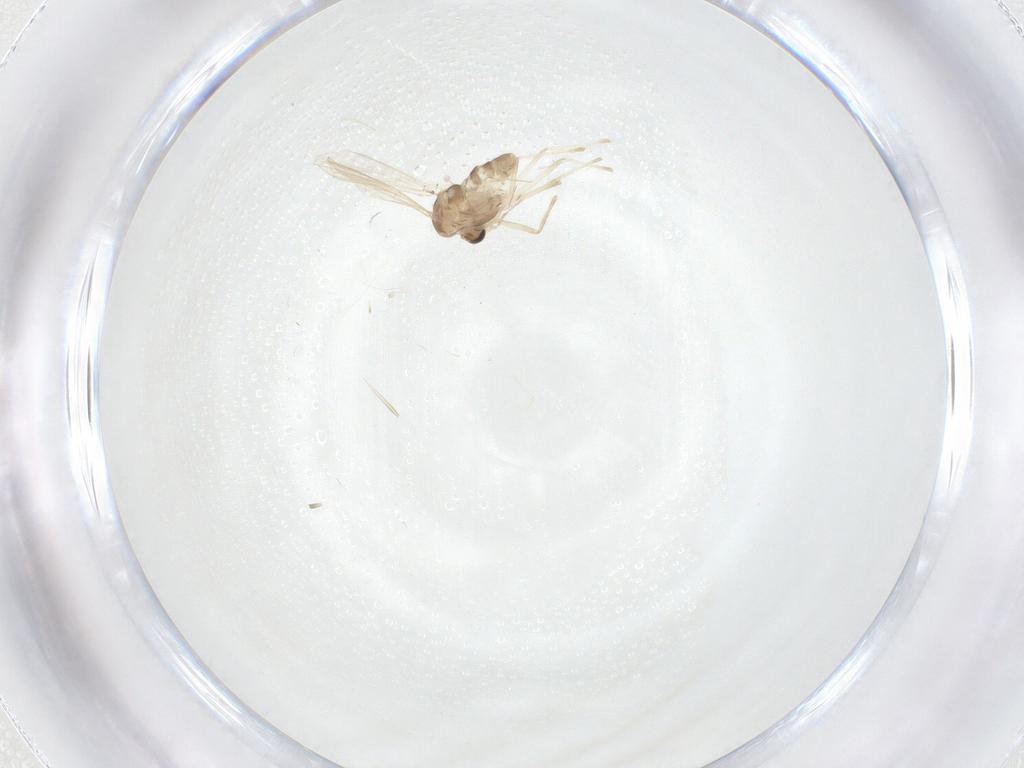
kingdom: Animalia
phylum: Arthropoda
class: Insecta
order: Diptera
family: Chironomidae
